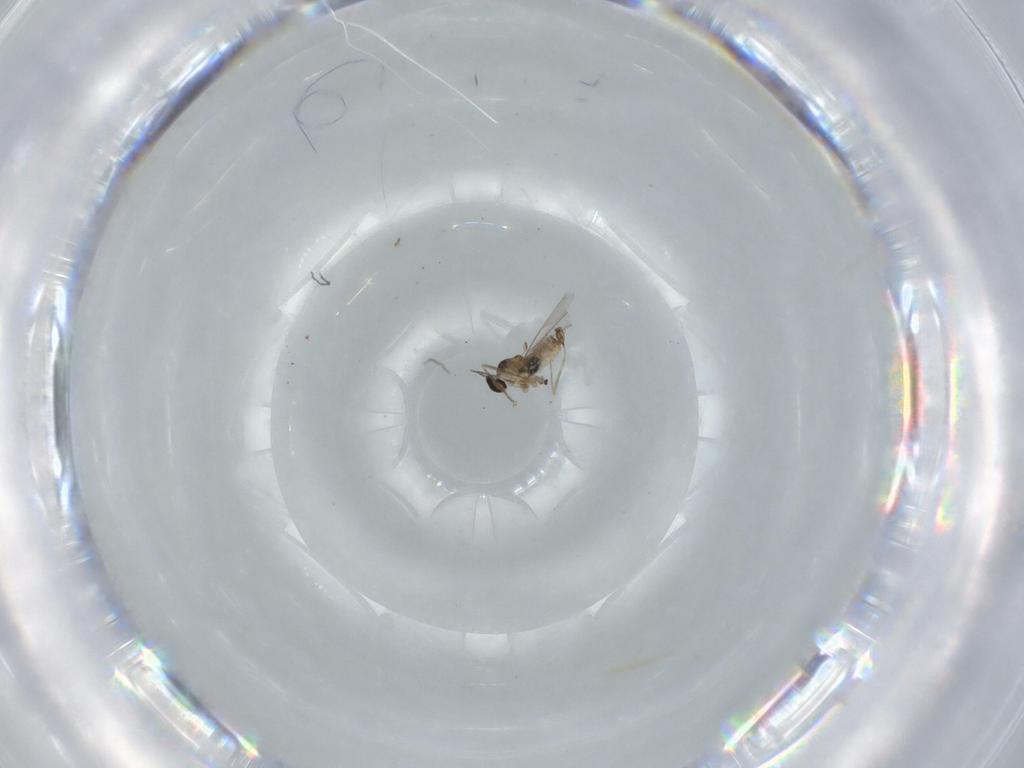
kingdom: Animalia
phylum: Arthropoda
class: Insecta
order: Diptera
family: Cecidomyiidae
